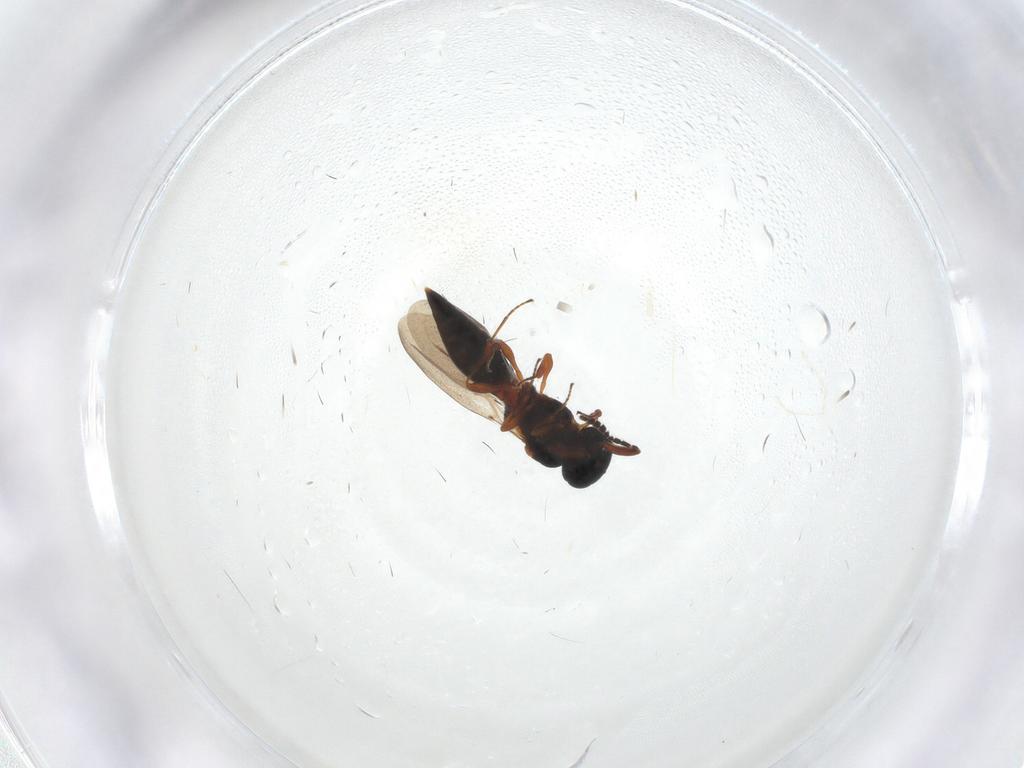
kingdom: Animalia
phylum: Arthropoda
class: Insecta
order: Hymenoptera
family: Platygastridae
